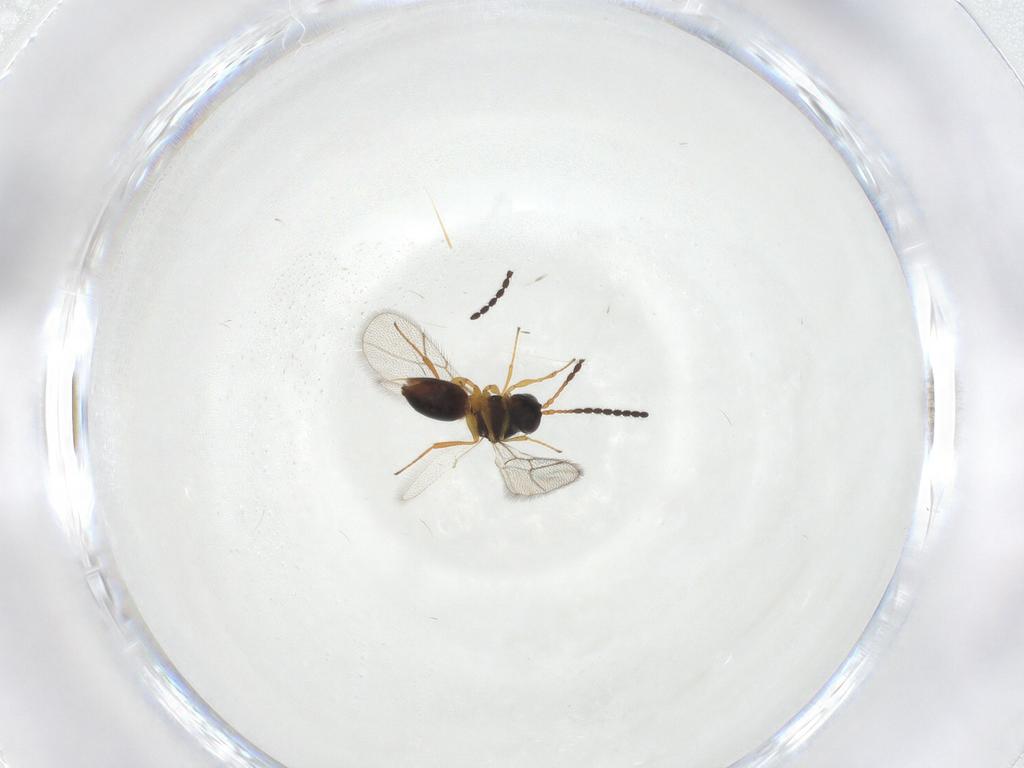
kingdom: Animalia
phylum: Arthropoda
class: Insecta
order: Hymenoptera
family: Figitidae
